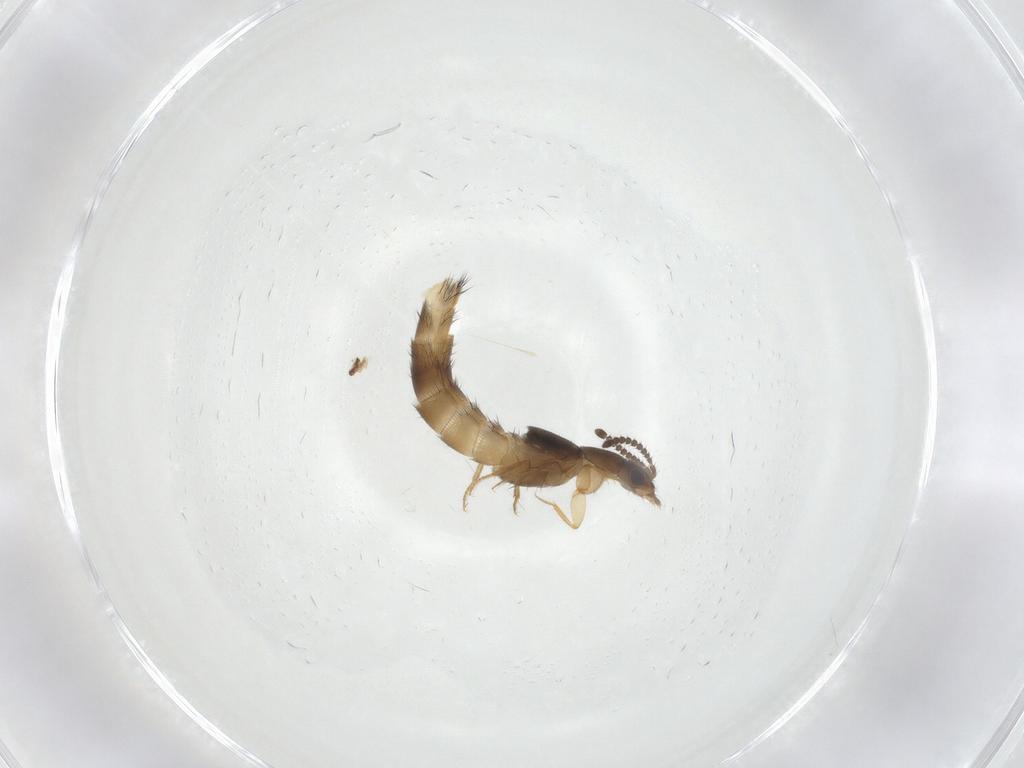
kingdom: Animalia
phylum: Arthropoda
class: Insecta
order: Coleoptera
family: Staphylinidae
